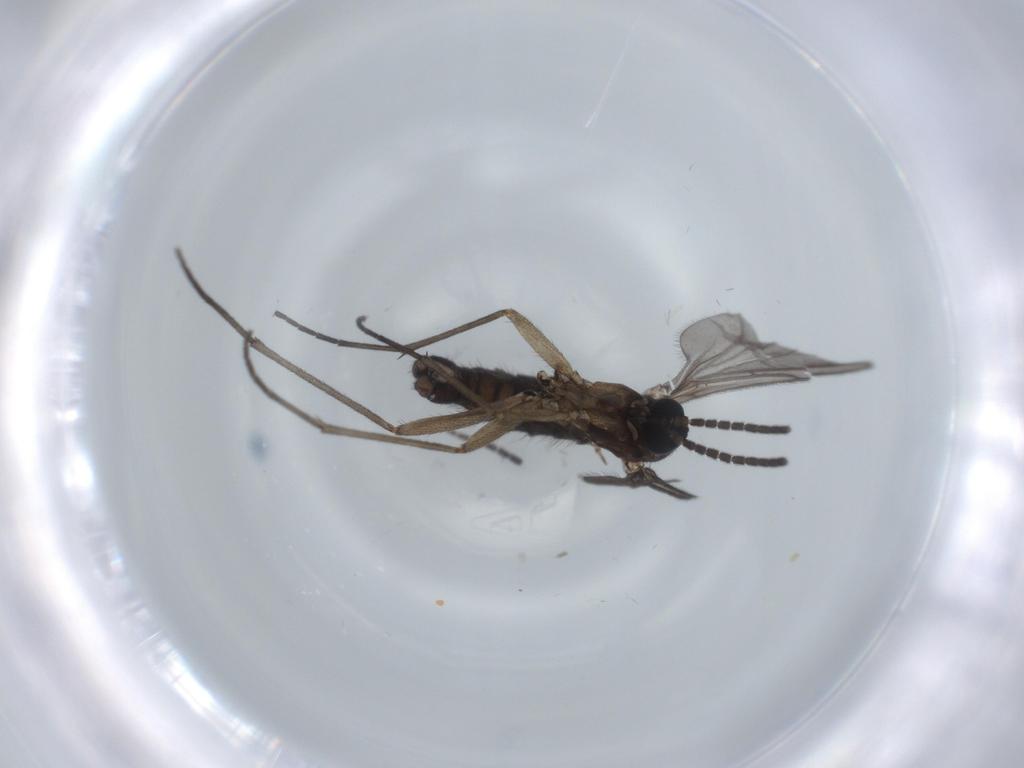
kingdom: Animalia
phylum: Arthropoda
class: Insecta
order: Diptera
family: Sciaridae
